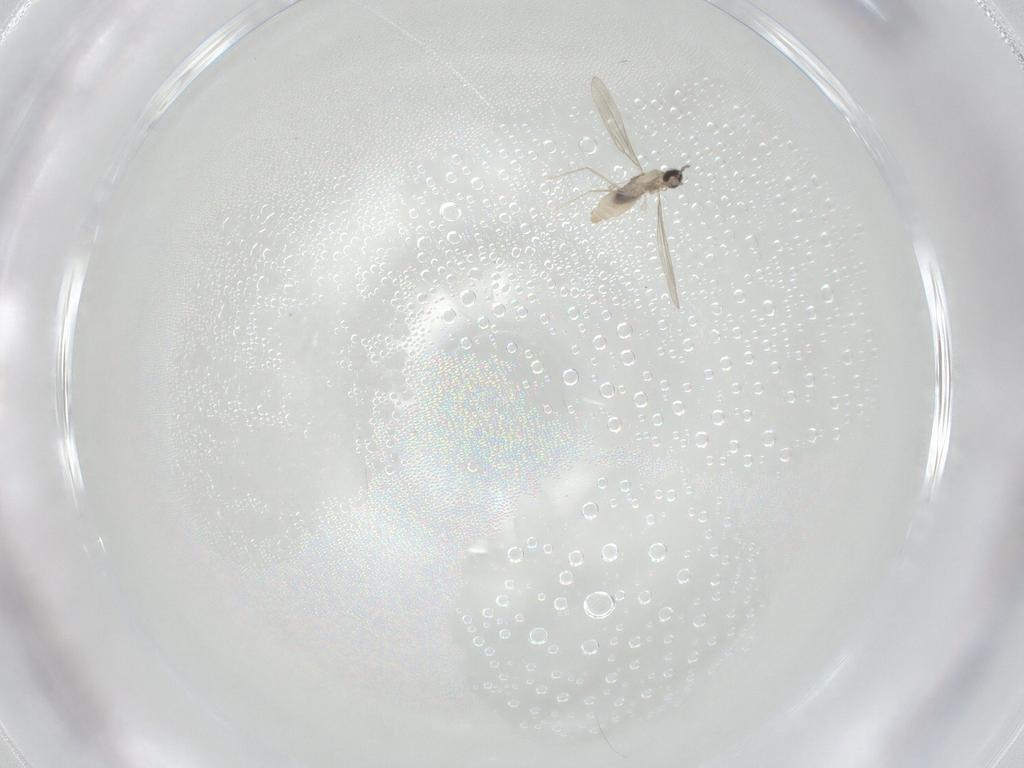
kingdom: Animalia
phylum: Arthropoda
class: Insecta
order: Diptera
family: Cecidomyiidae
